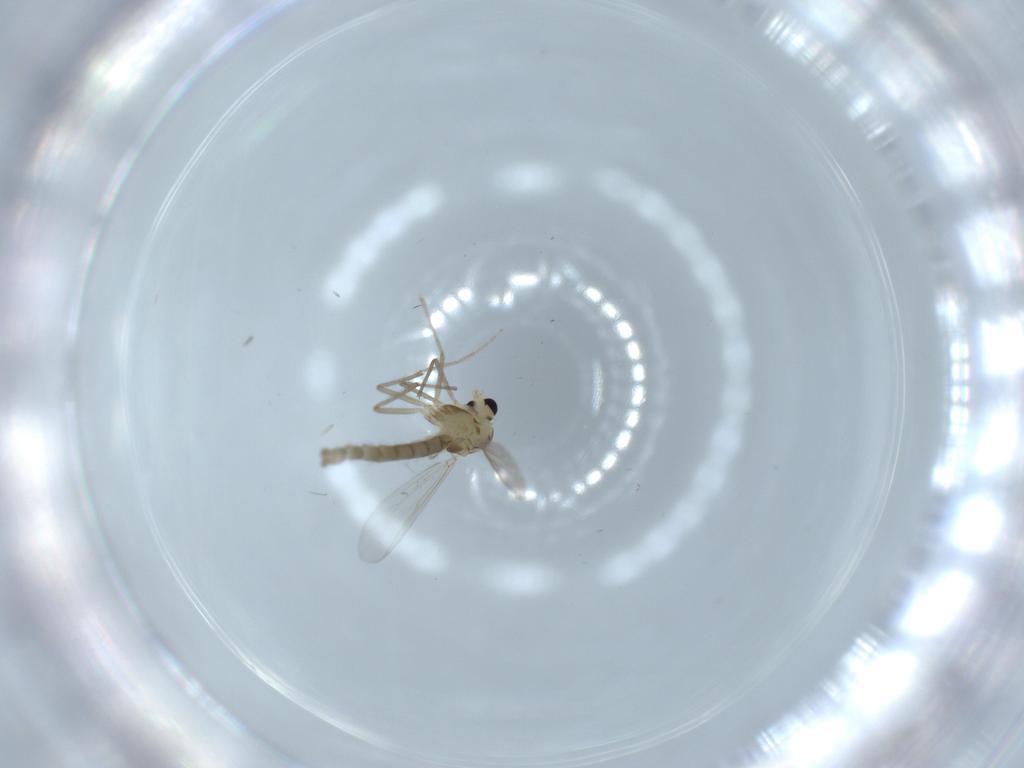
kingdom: Animalia
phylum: Arthropoda
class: Insecta
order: Diptera
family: Chironomidae
